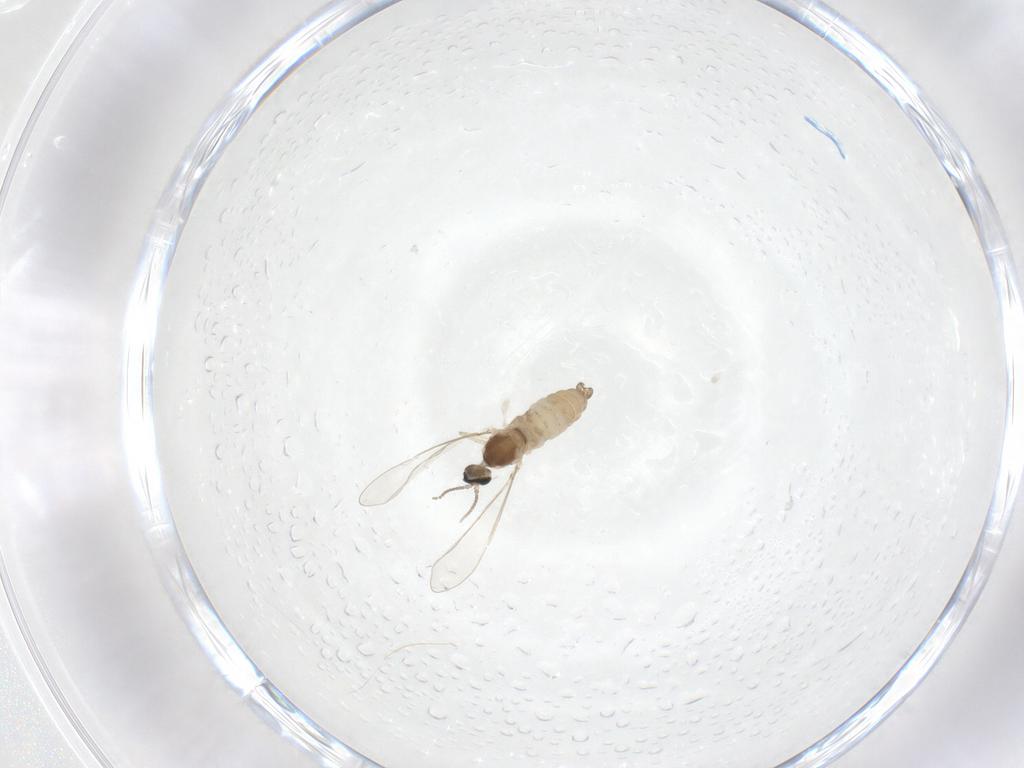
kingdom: Animalia
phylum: Arthropoda
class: Insecta
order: Diptera
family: Cecidomyiidae
